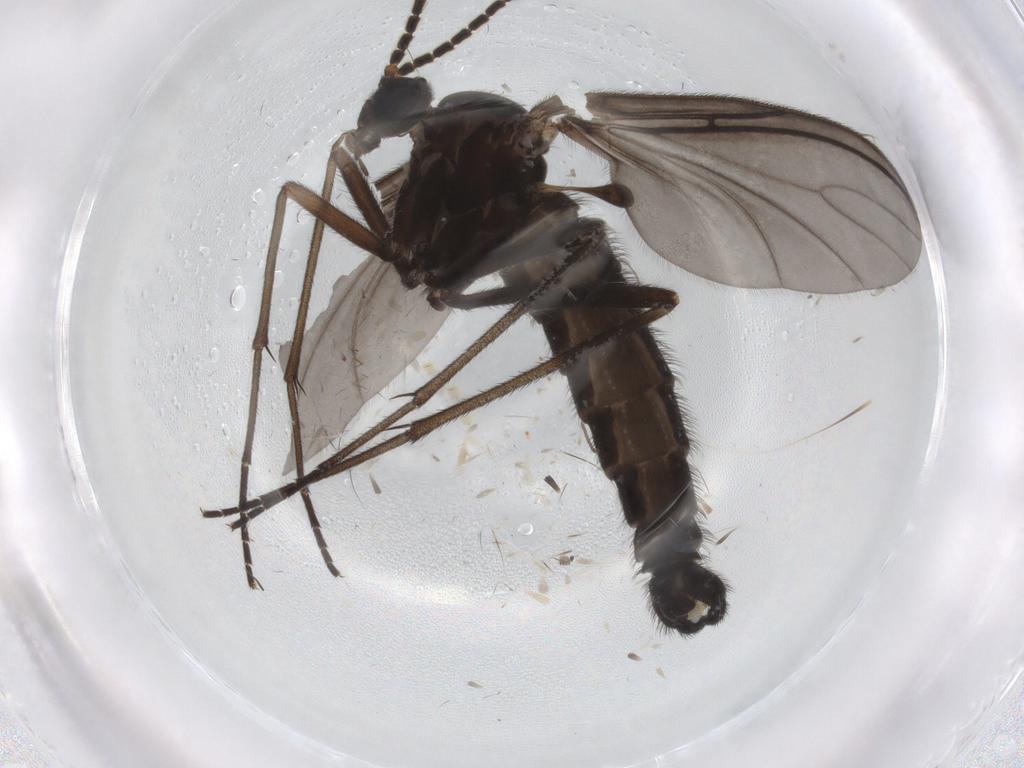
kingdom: Animalia
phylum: Arthropoda
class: Insecta
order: Diptera
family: Sciaridae
